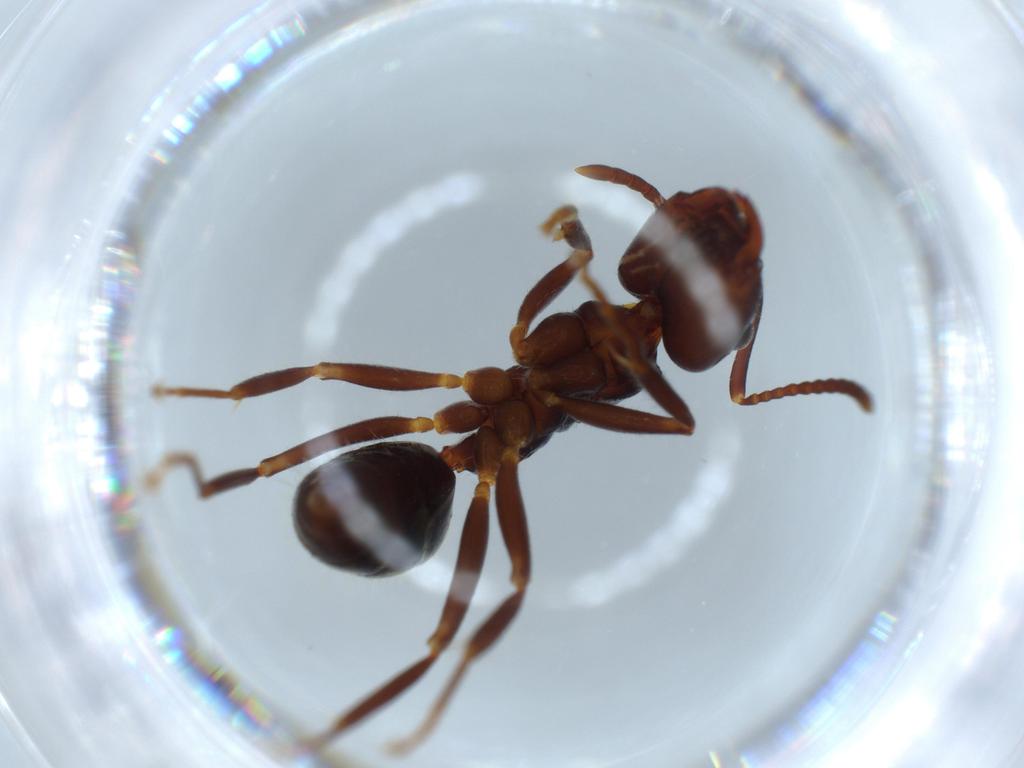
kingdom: Animalia
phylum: Arthropoda
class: Insecta
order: Hymenoptera
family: Formicidae
